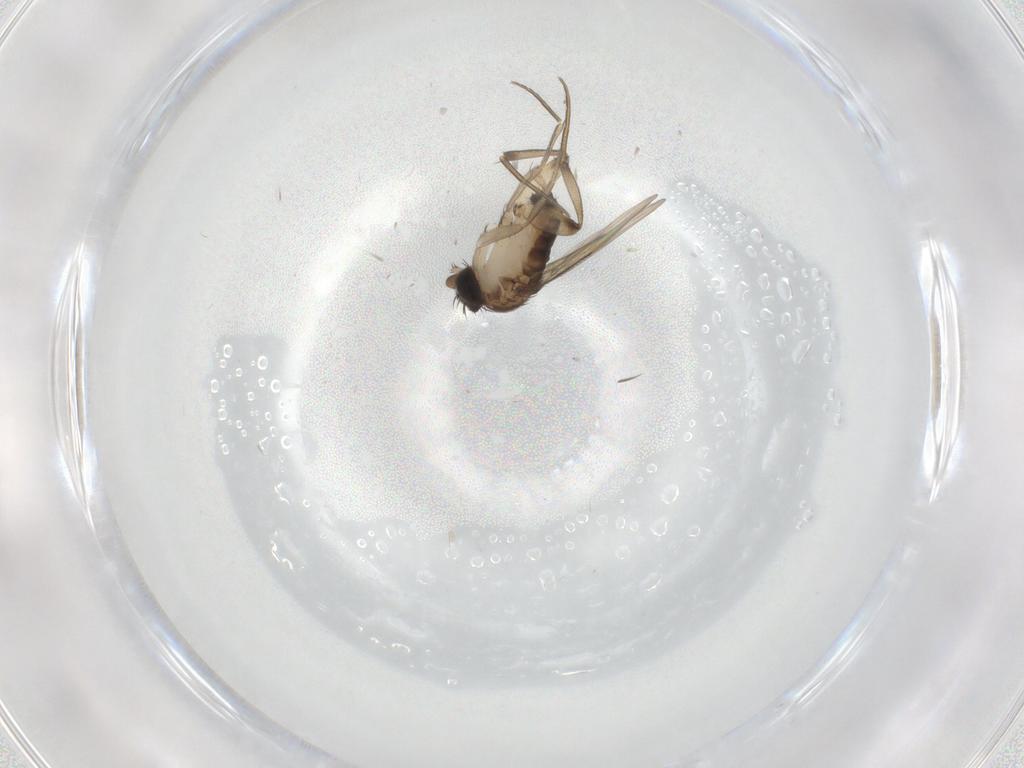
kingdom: Animalia
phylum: Arthropoda
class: Insecta
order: Diptera
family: Phoridae
